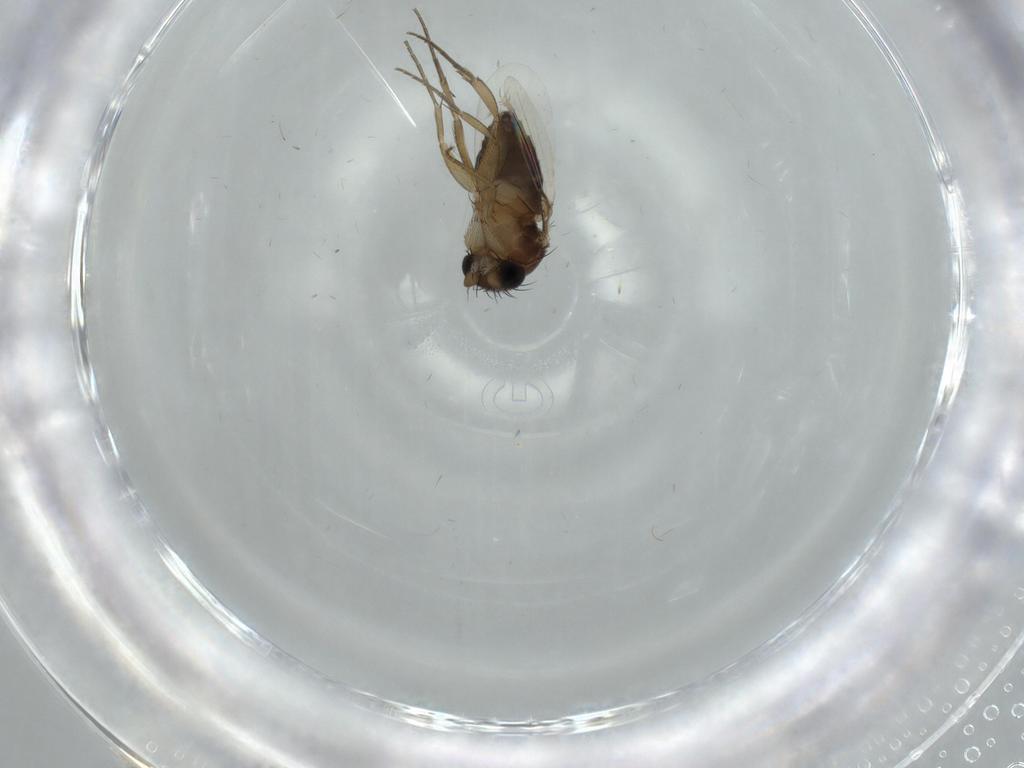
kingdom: Animalia
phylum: Arthropoda
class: Insecta
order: Diptera
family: Phoridae
